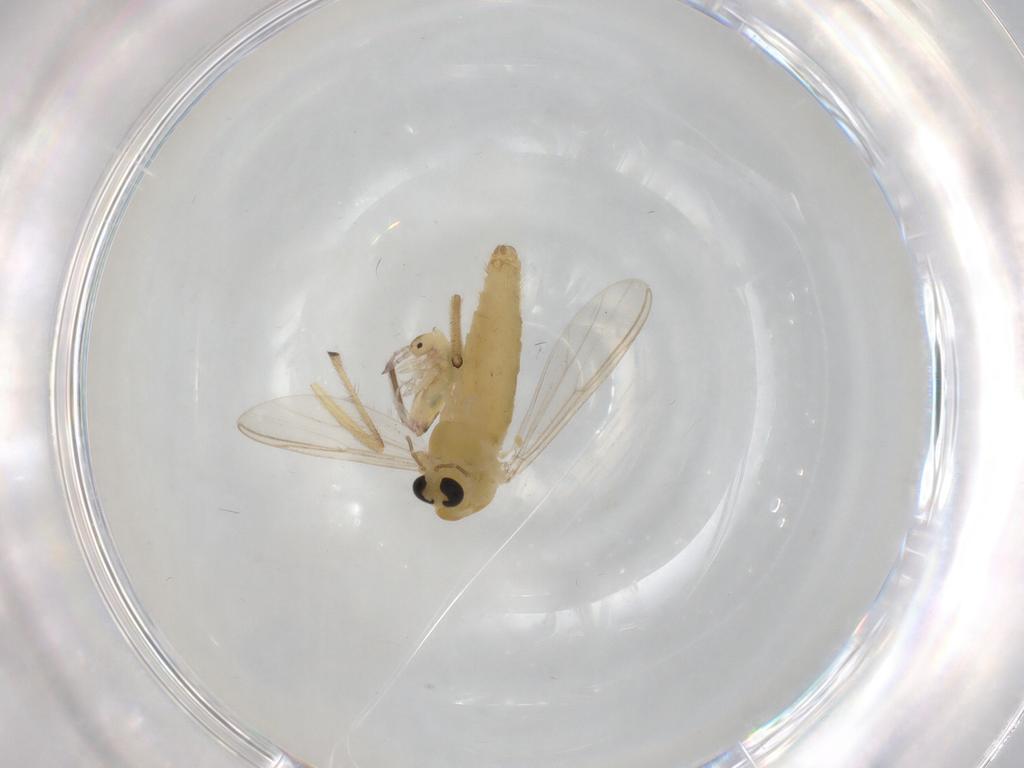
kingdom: Animalia
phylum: Arthropoda
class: Insecta
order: Diptera
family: Chironomidae
